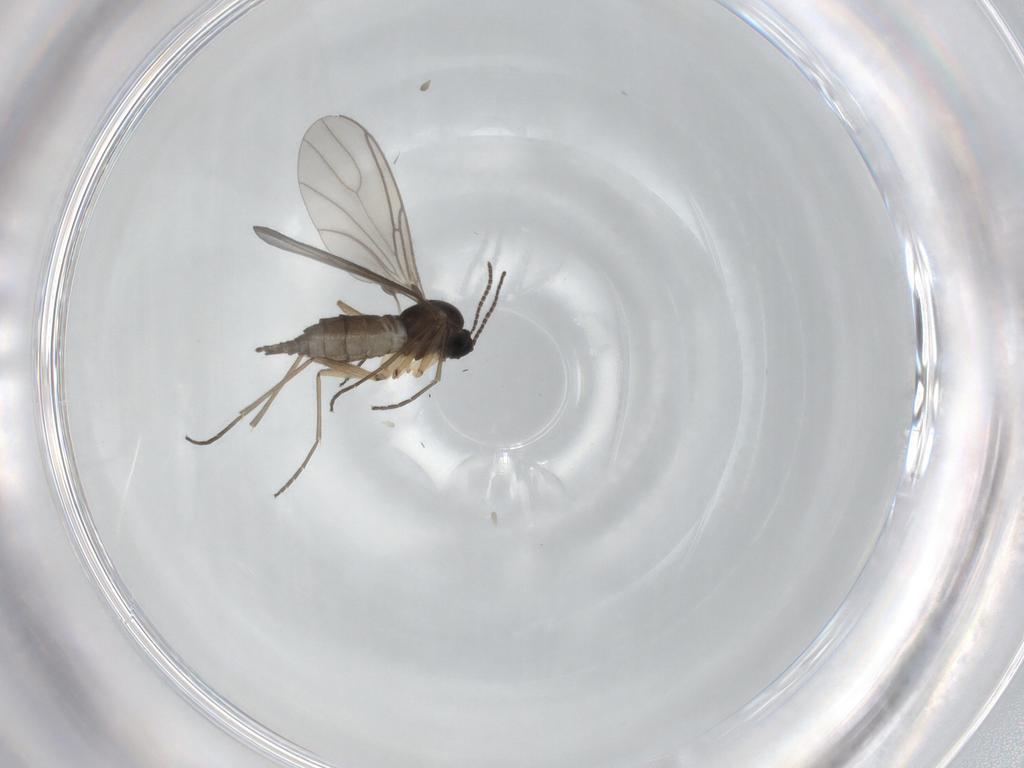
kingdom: Animalia
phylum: Arthropoda
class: Insecta
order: Diptera
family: Sciaridae
